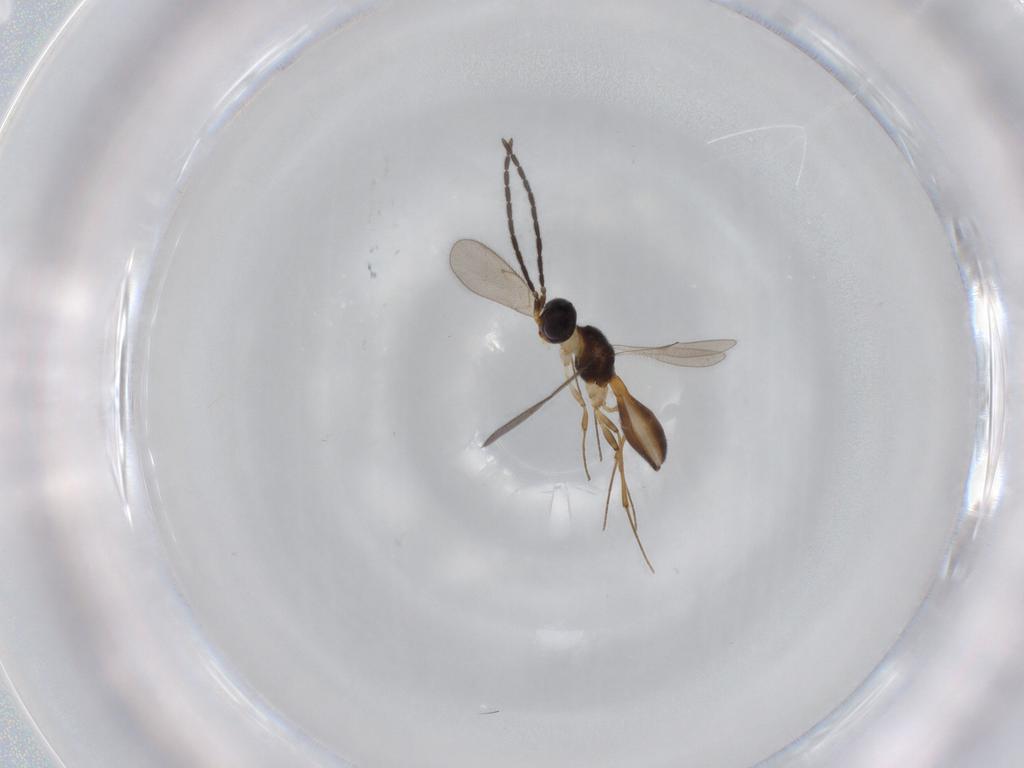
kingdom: Animalia
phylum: Arthropoda
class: Insecta
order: Hymenoptera
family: Scelionidae
